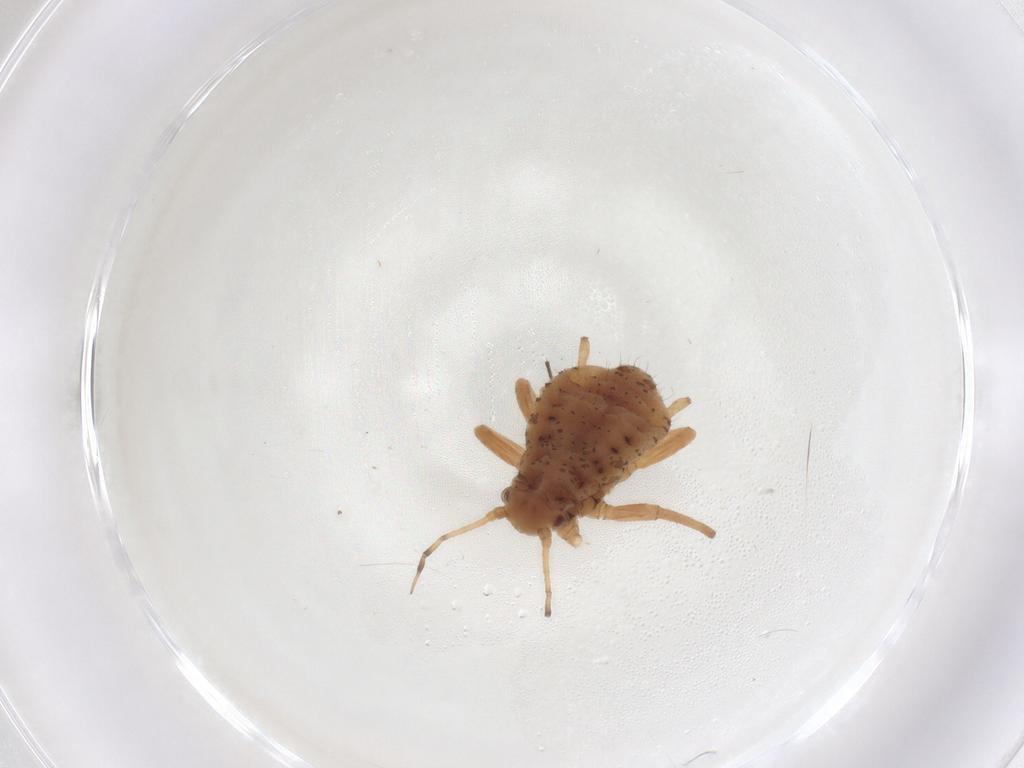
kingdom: Animalia
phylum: Arthropoda
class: Insecta
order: Hemiptera
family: Aphididae
